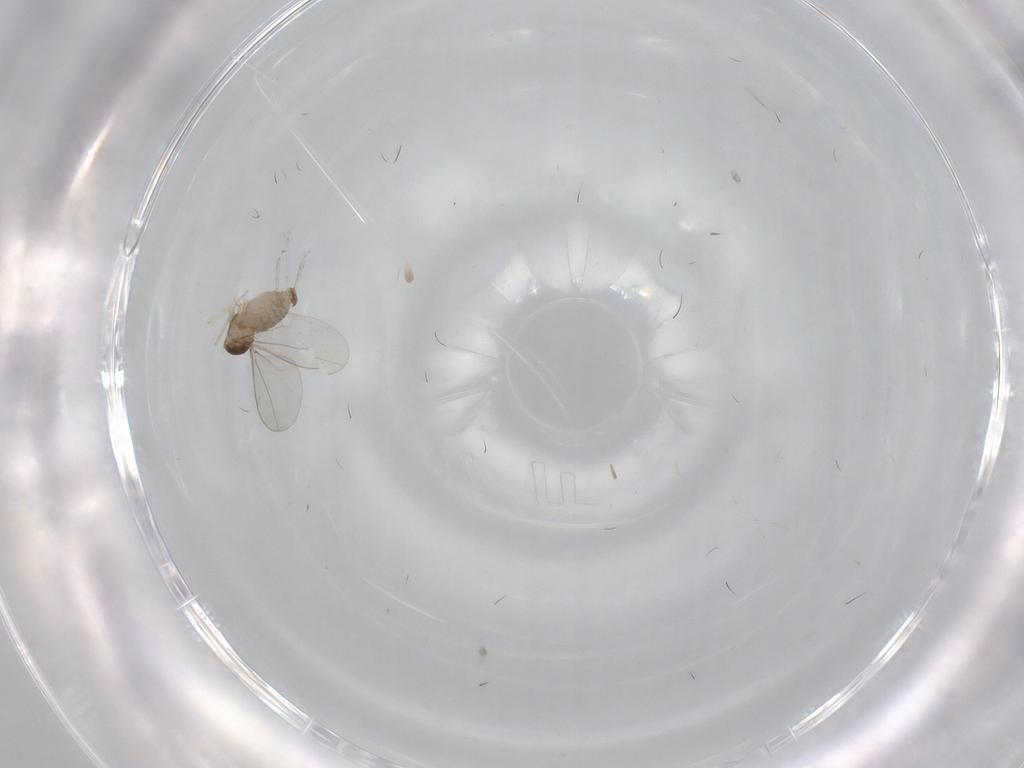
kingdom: Animalia
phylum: Arthropoda
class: Insecta
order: Diptera
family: Cecidomyiidae
